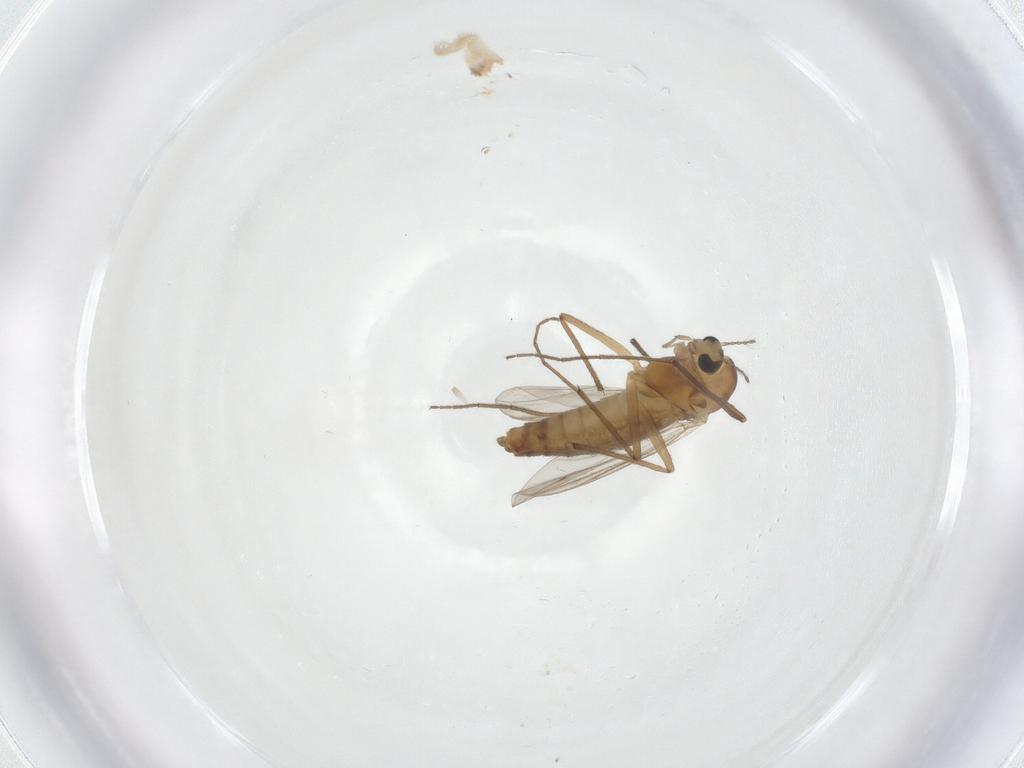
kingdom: Animalia
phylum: Arthropoda
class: Insecta
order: Diptera
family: Chironomidae
